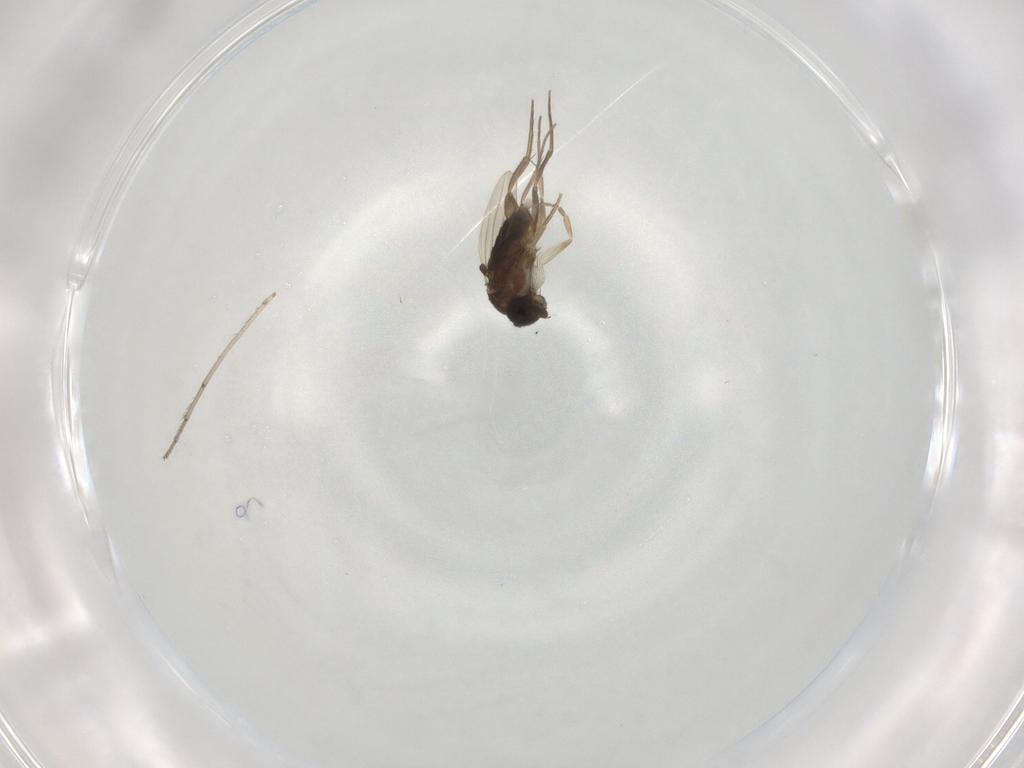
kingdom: Animalia
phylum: Arthropoda
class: Insecta
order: Diptera
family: Phoridae
